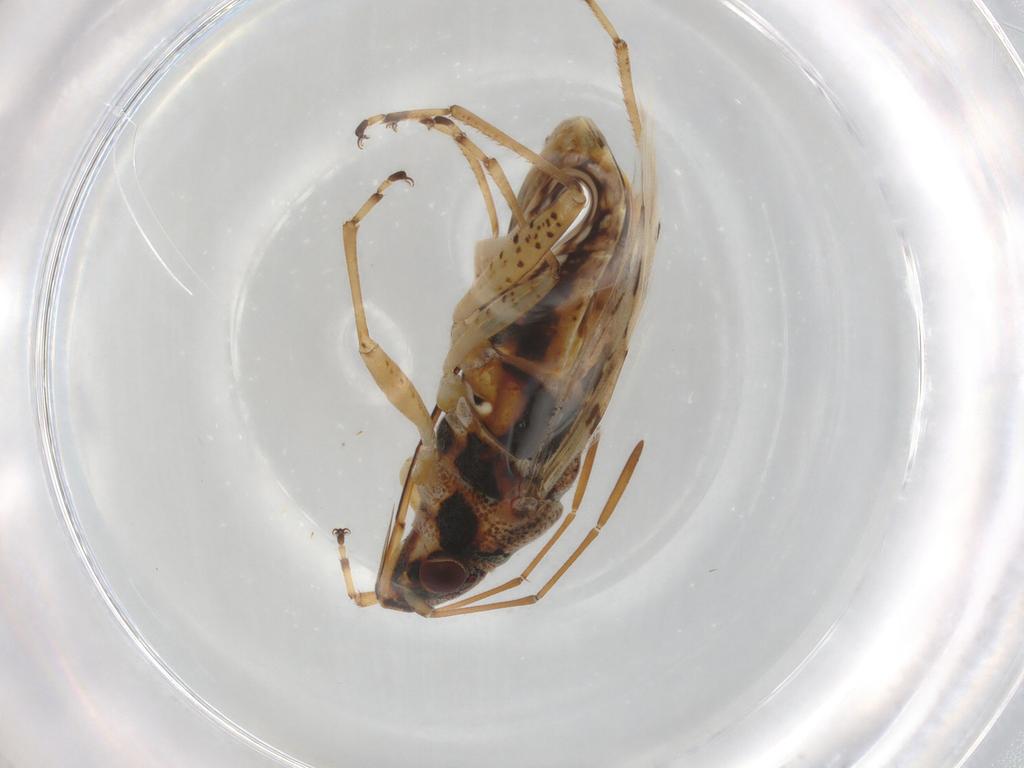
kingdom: Animalia
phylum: Arthropoda
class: Insecta
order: Hemiptera
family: Lygaeidae
